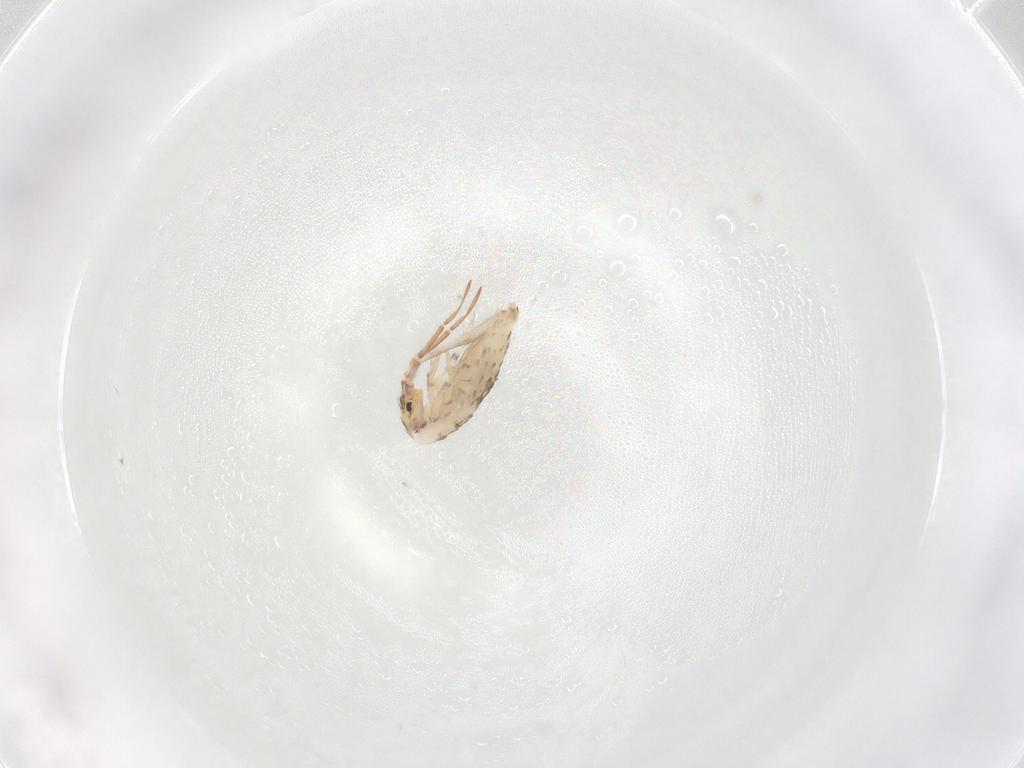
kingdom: Animalia
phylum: Arthropoda
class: Collembola
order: Entomobryomorpha
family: Entomobryidae
